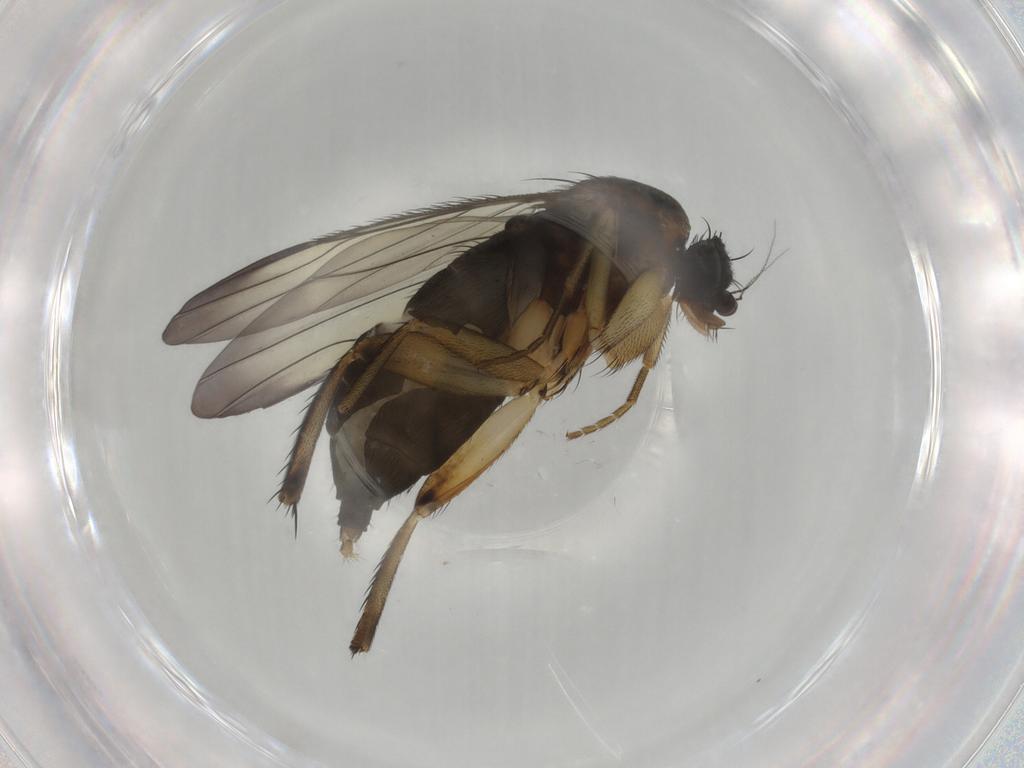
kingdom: Animalia
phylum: Arthropoda
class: Insecta
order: Diptera
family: Phoridae
